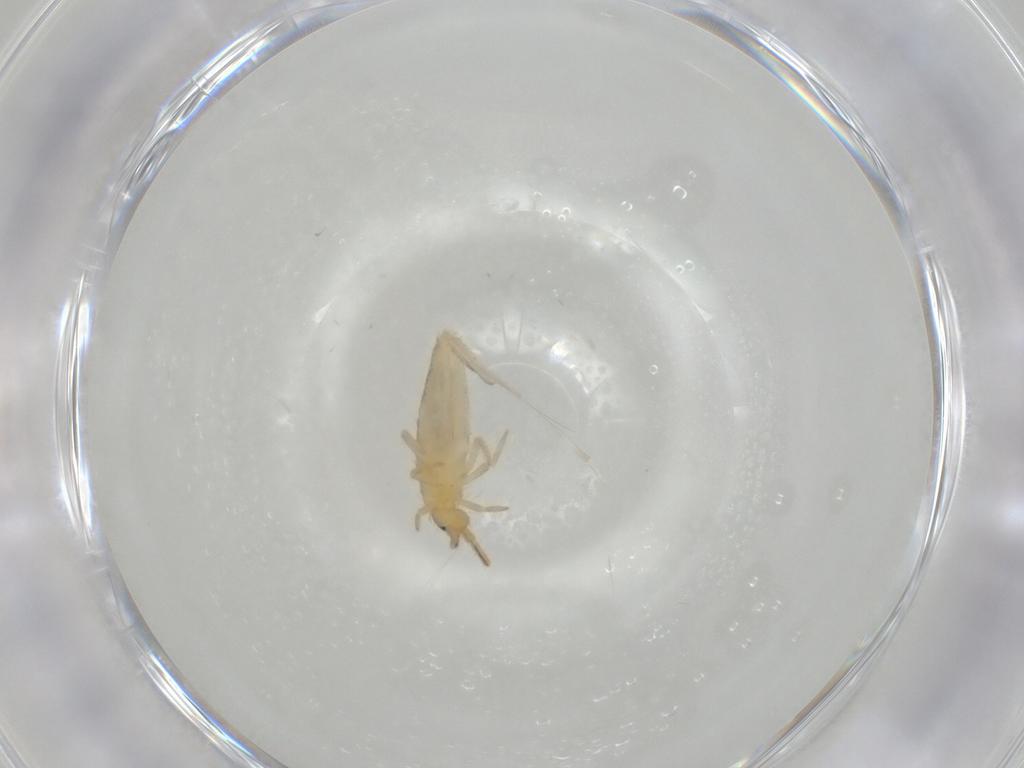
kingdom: Animalia
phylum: Arthropoda
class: Collembola
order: Entomobryomorpha
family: Entomobryidae
